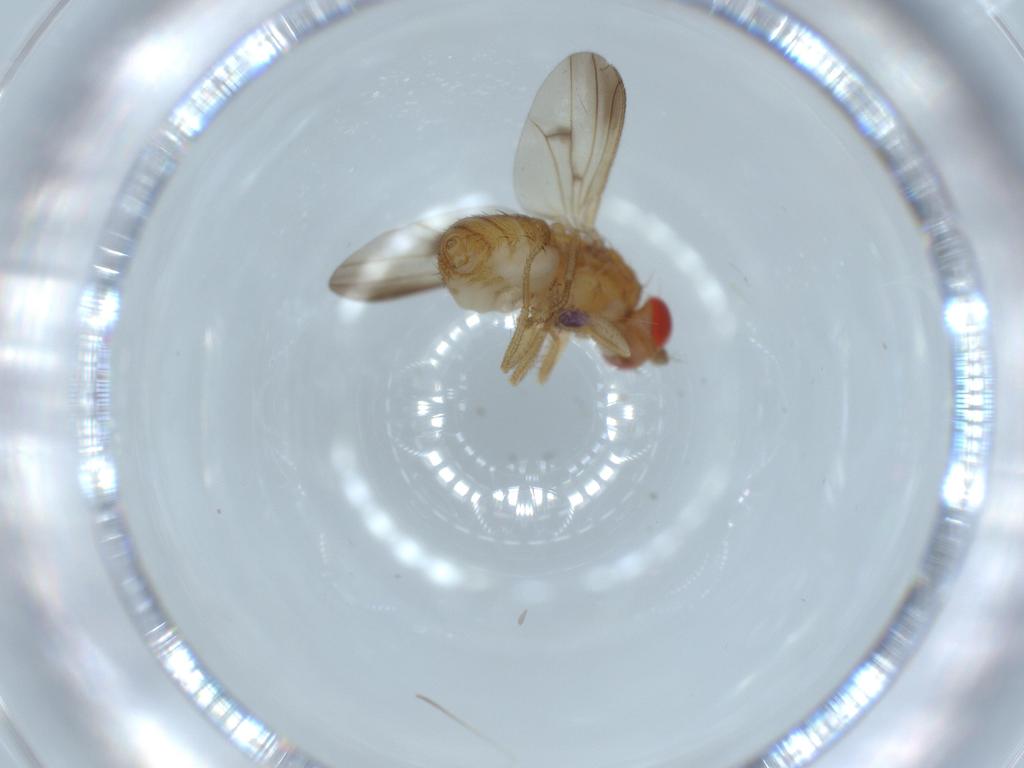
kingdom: Animalia
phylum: Arthropoda
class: Insecta
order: Diptera
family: Drosophilidae
